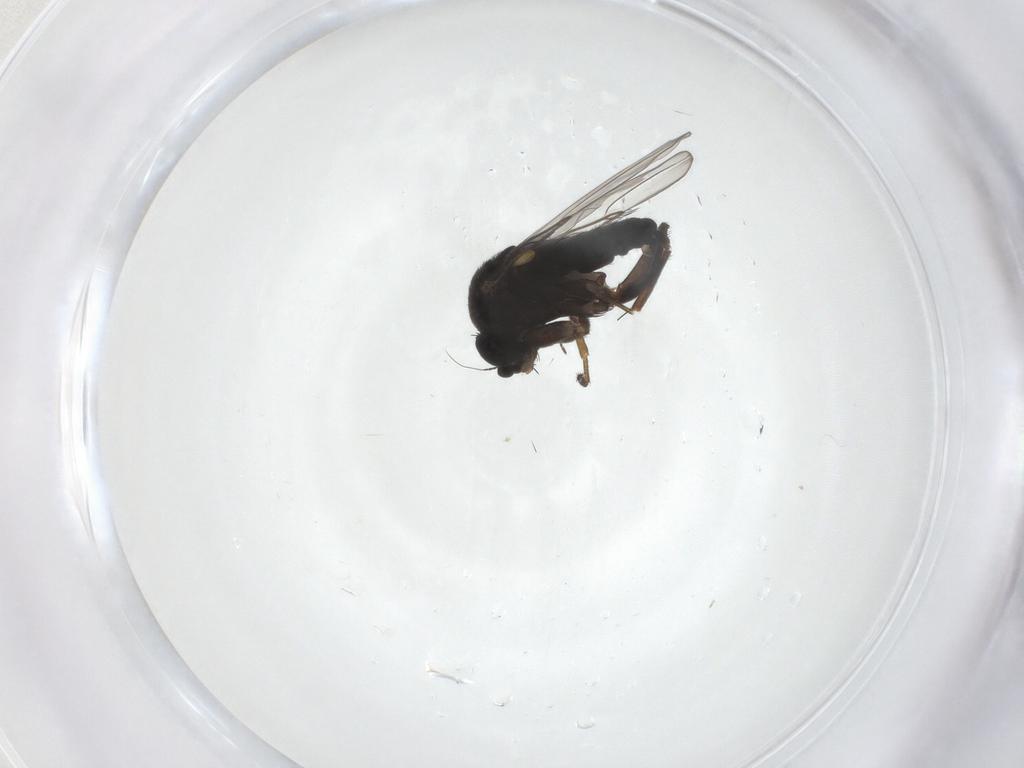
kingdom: Animalia
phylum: Arthropoda
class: Insecta
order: Diptera
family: Phoridae
